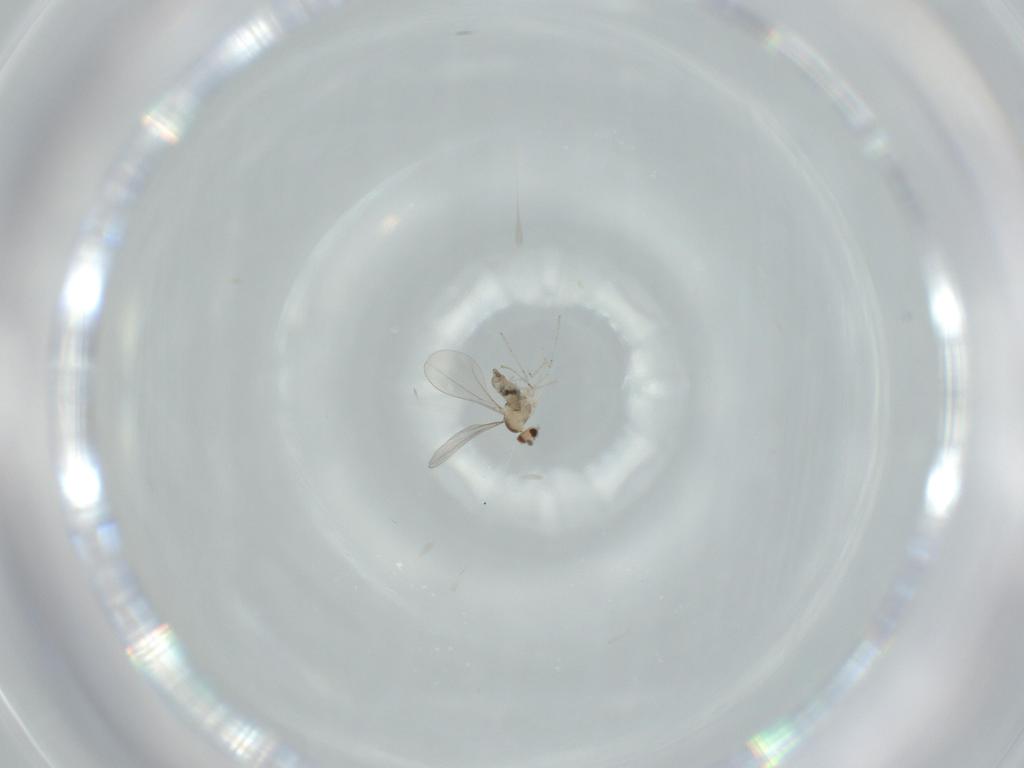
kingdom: Animalia
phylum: Arthropoda
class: Insecta
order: Diptera
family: Cecidomyiidae
